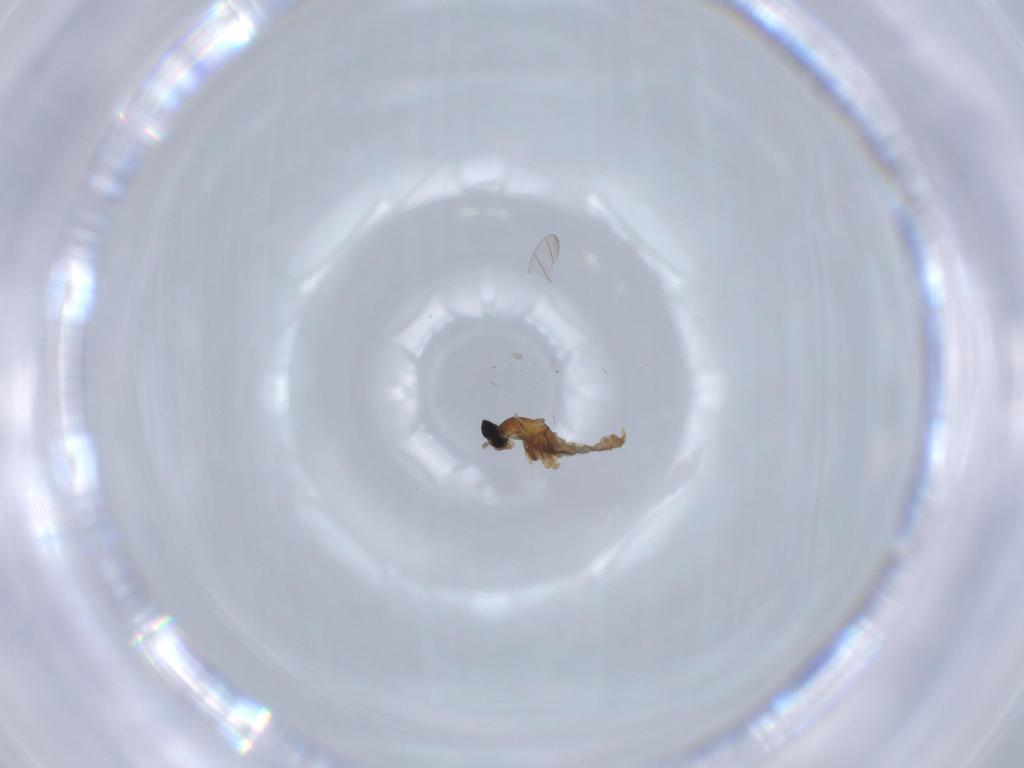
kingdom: Animalia
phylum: Arthropoda
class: Insecta
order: Diptera
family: Cecidomyiidae
